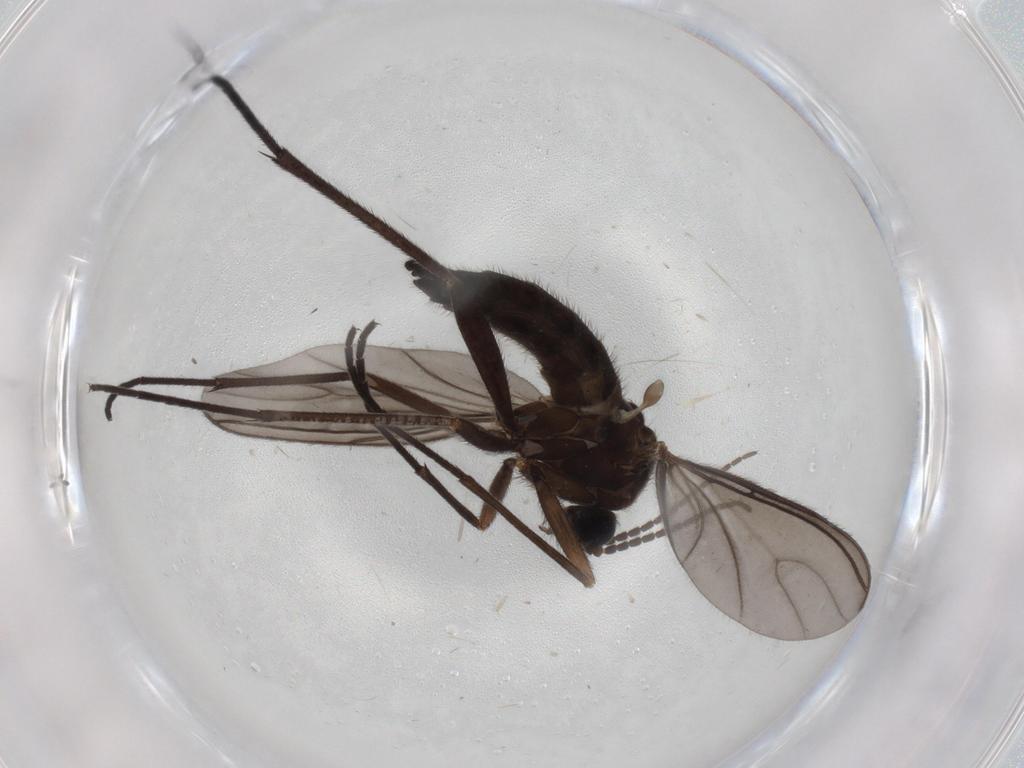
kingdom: Animalia
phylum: Arthropoda
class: Insecta
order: Diptera
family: Sciaridae
